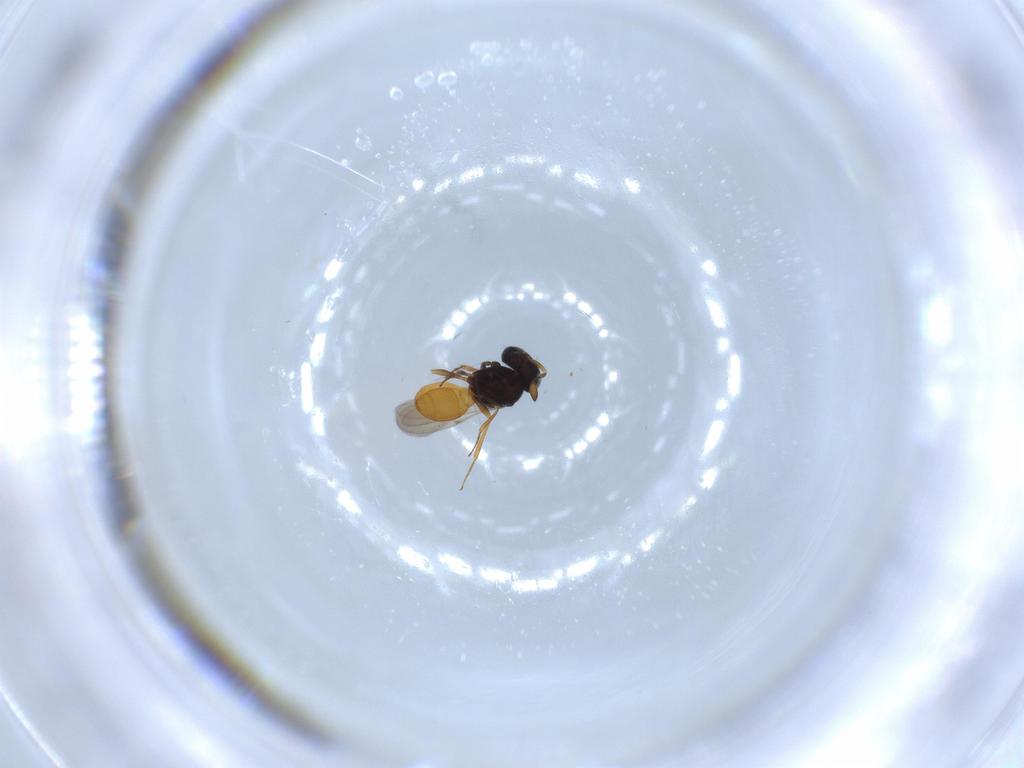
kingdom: Animalia
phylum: Arthropoda
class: Insecta
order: Hymenoptera
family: Scelionidae
